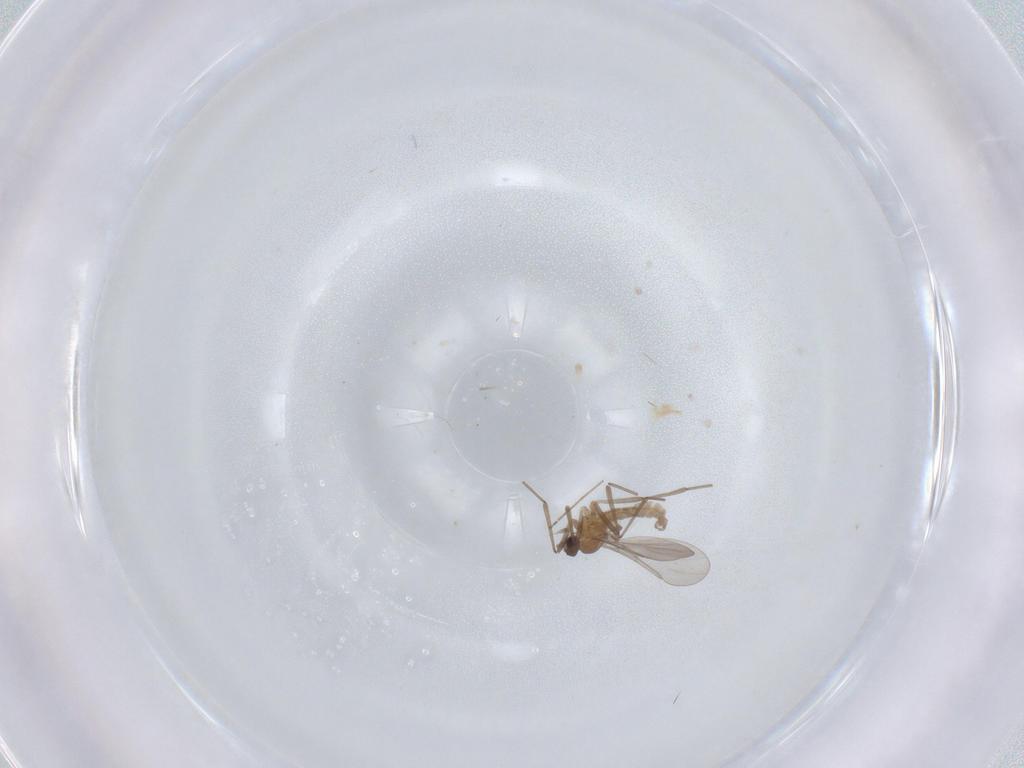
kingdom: Animalia
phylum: Arthropoda
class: Insecta
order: Diptera
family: Chironomidae
